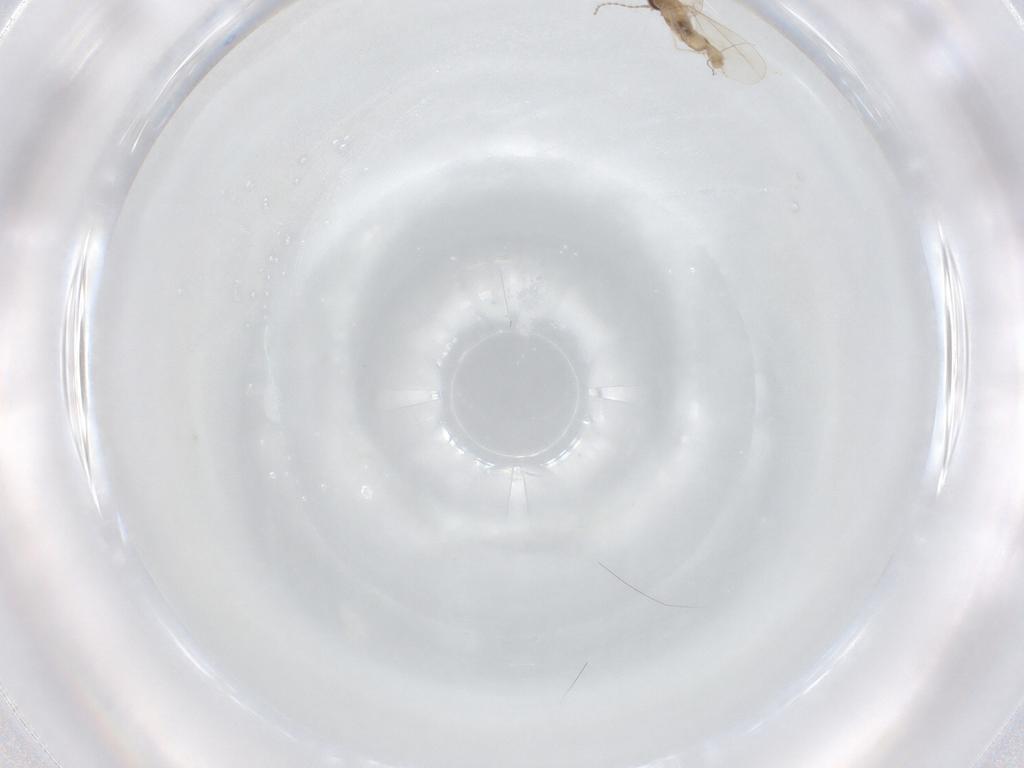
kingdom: Animalia
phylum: Arthropoda
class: Insecta
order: Diptera
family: Cecidomyiidae
